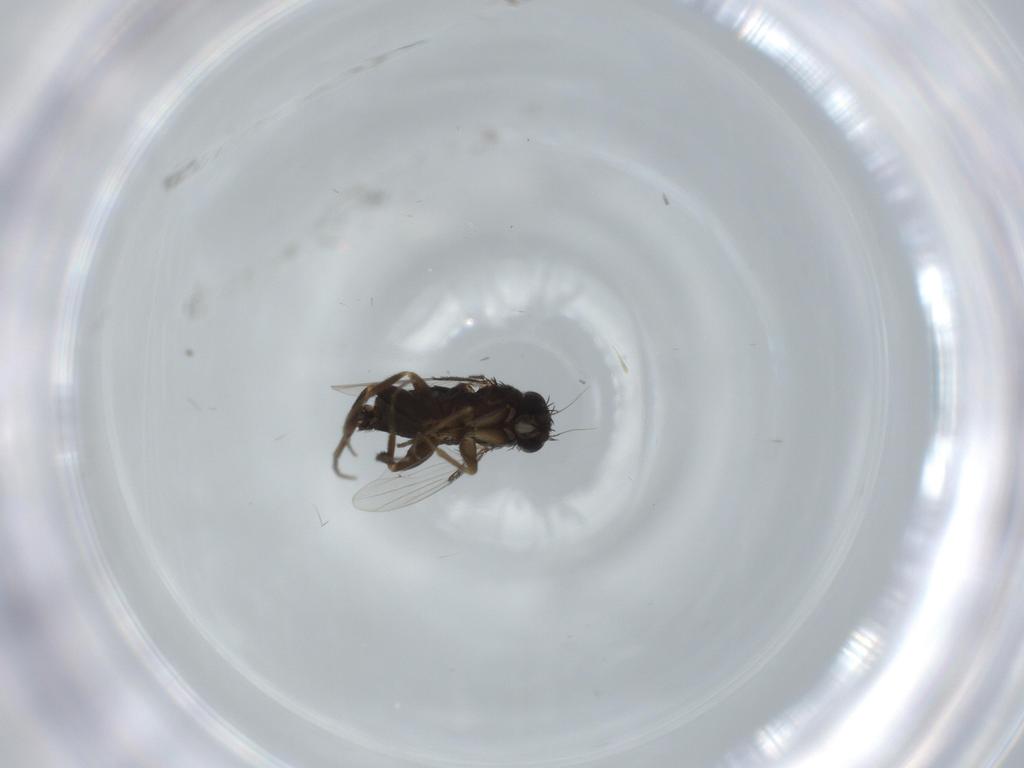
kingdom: Animalia
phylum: Arthropoda
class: Insecta
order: Diptera
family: Phoridae
